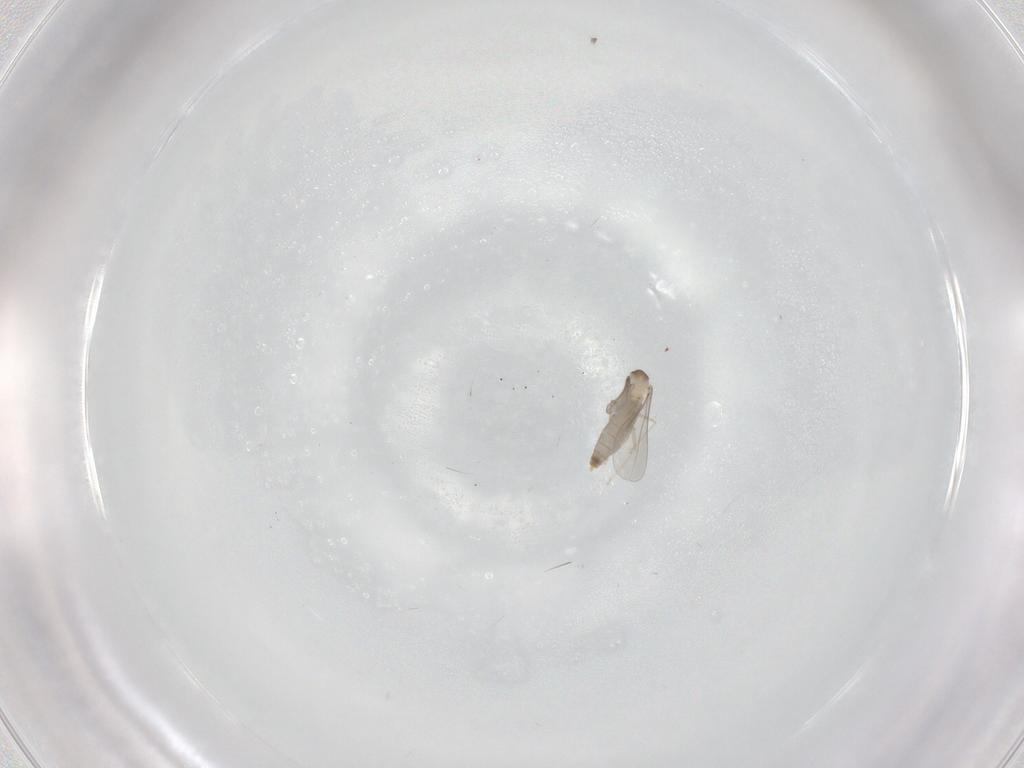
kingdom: Animalia
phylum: Arthropoda
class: Insecta
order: Diptera
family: Cecidomyiidae
